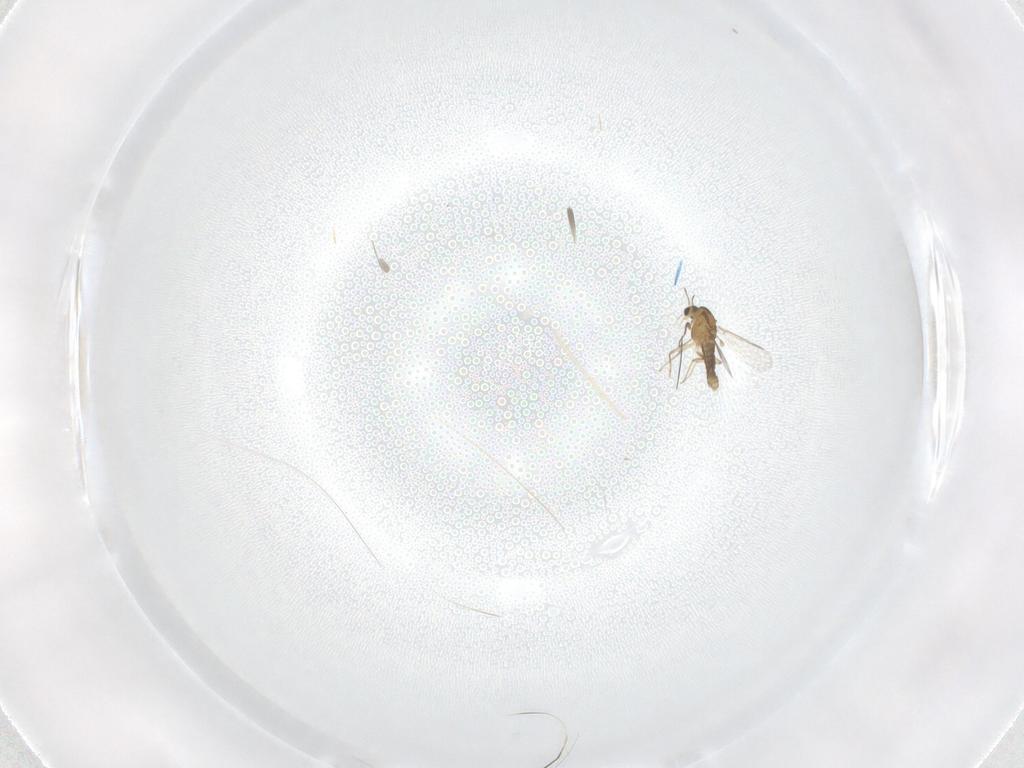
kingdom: Animalia
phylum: Arthropoda
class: Insecta
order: Diptera
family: Chironomidae
